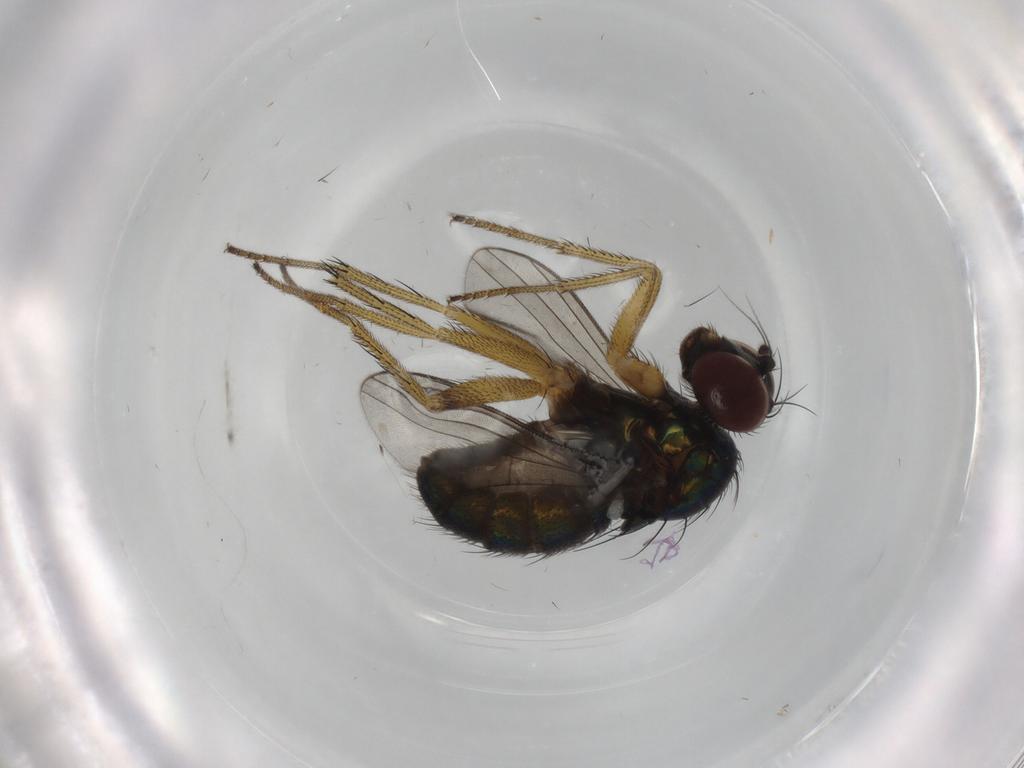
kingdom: Animalia
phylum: Arthropoda
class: Insecta
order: Diptera
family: Dolichopodidae
